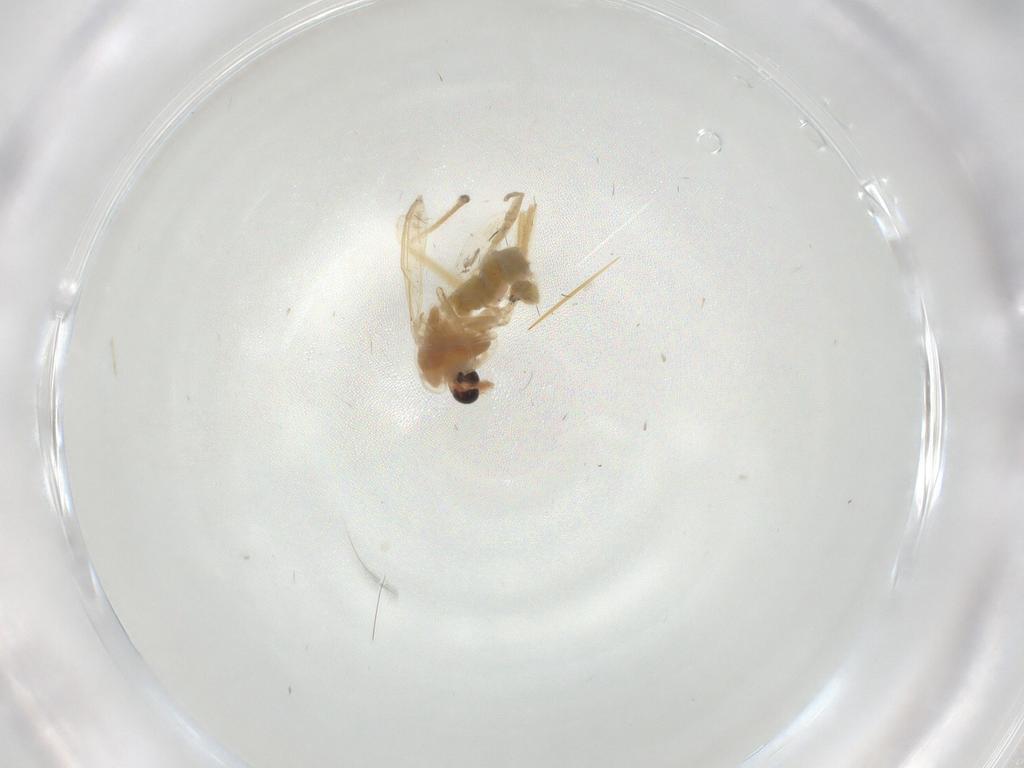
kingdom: Animalia
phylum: Arthropoda
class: Insecta
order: Diptera
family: Chironomidae
